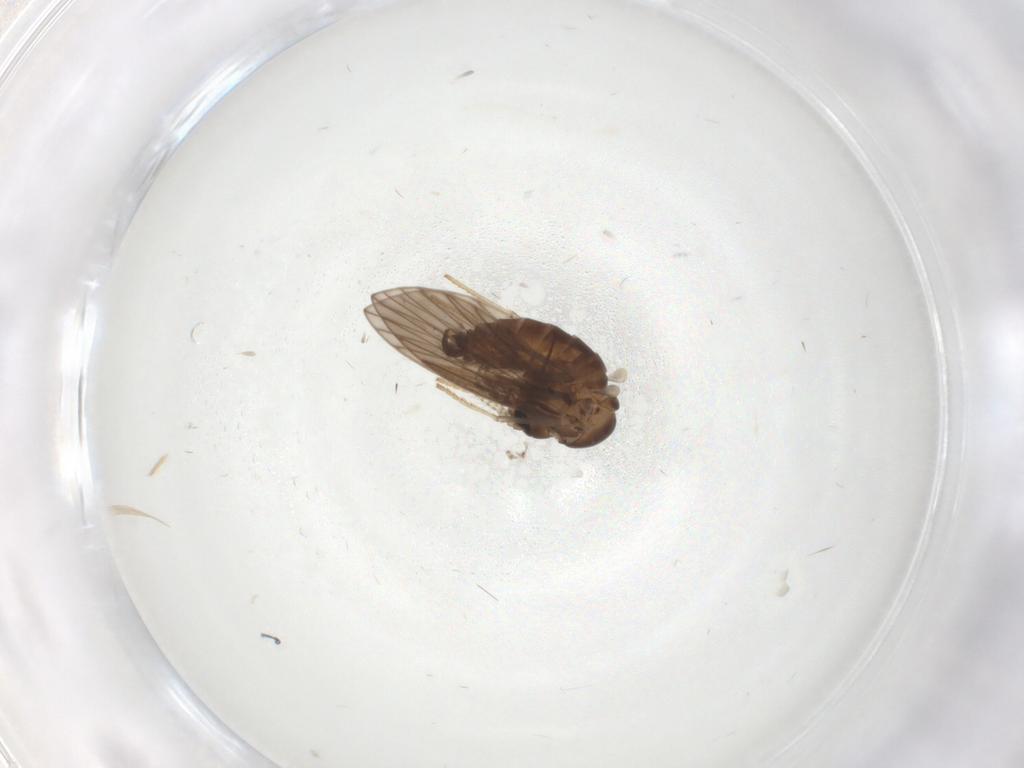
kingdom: Animalia
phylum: Arthropoda
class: Insecta
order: Diptera
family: Psychodidae
